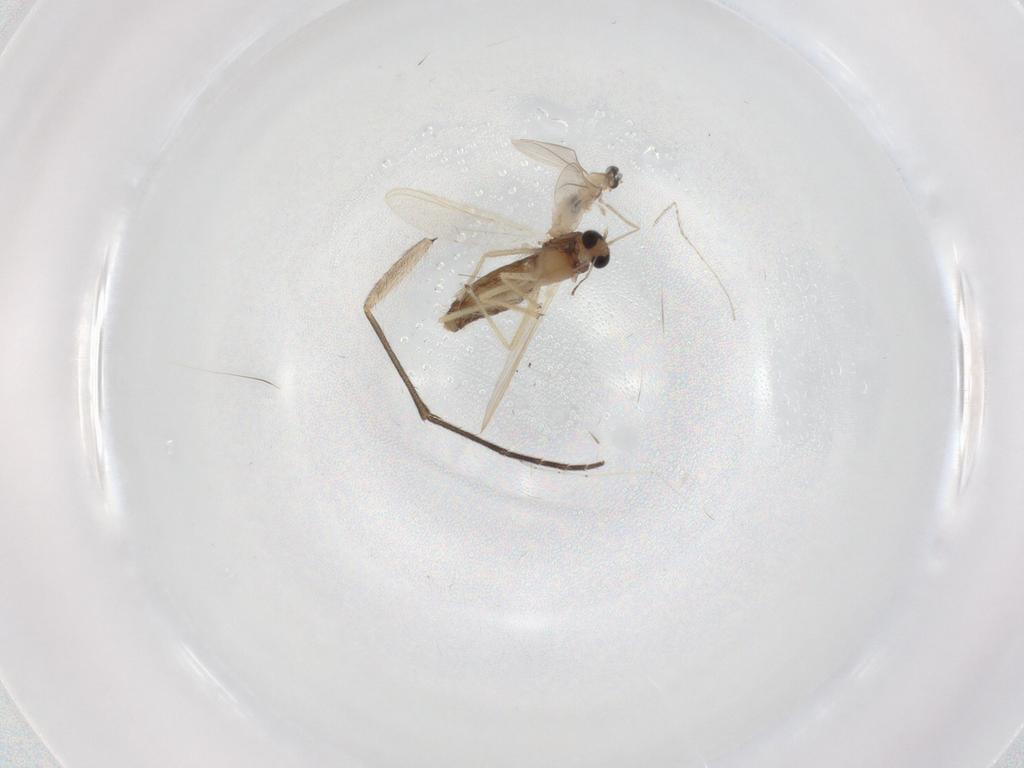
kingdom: Animalia
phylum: Arthropoda
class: Insecta
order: Diptera
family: Chironomidae
